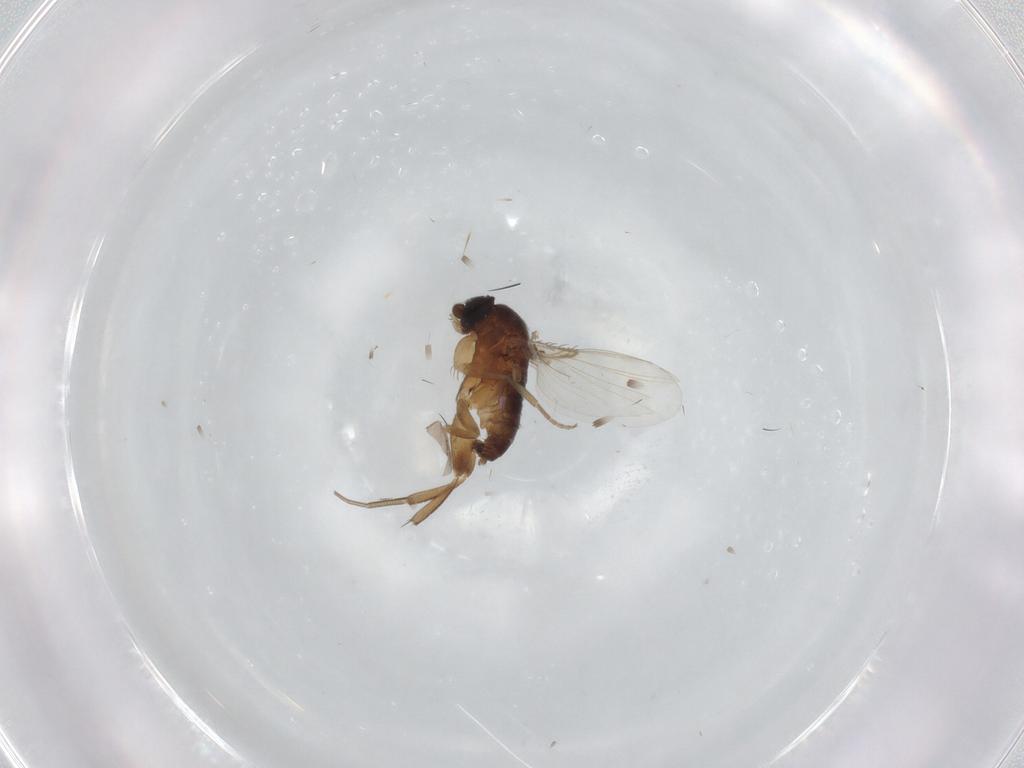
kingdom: Animalia
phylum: Arthropoda
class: Insecta
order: Diptera
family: Phoridae
